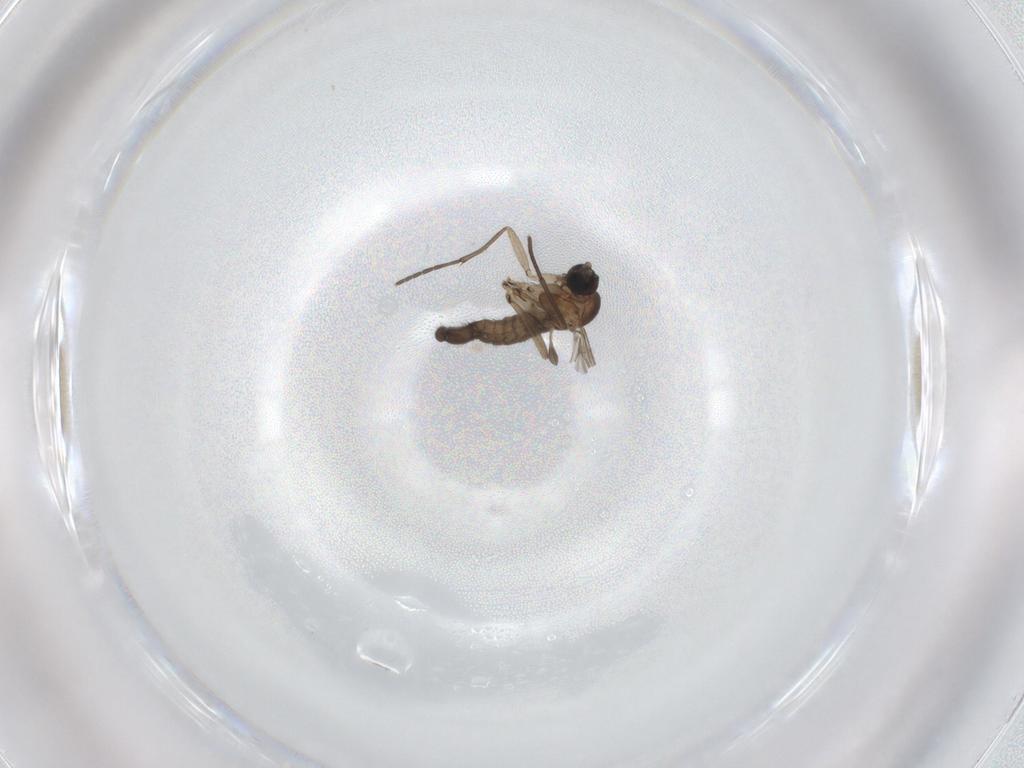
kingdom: Animalia
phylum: Arthropoda
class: Insecta
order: Diptera
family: Sciaridae
